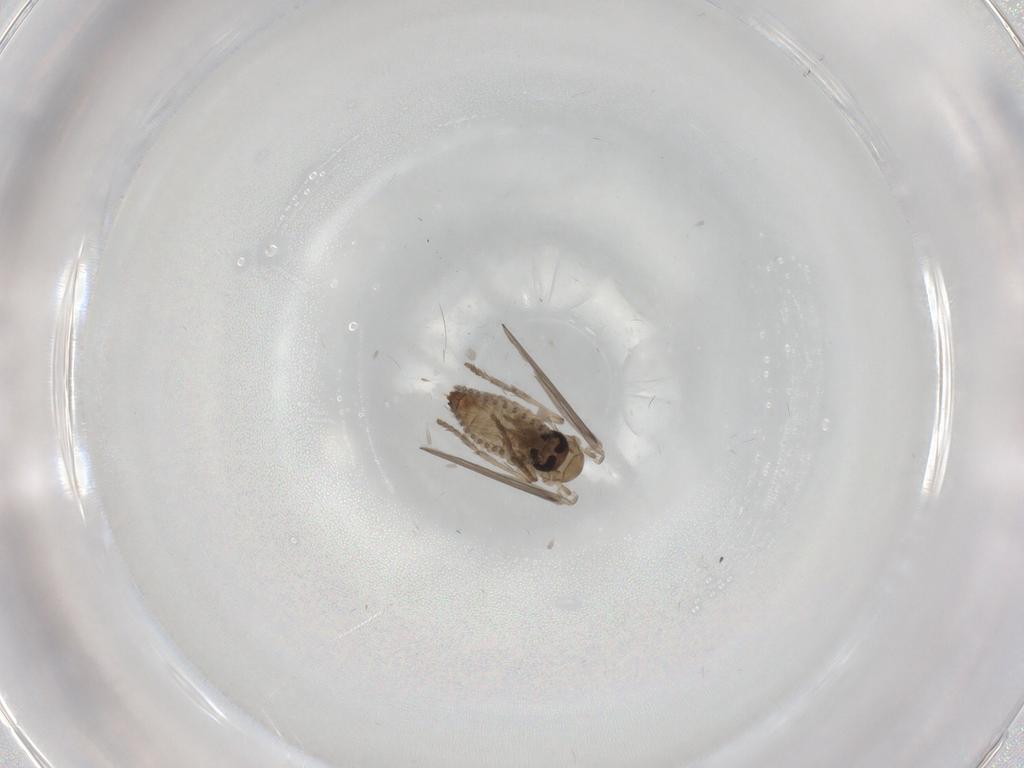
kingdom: Animalia
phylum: Arthropoda
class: Insecta
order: Diptera
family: Psychodidae
